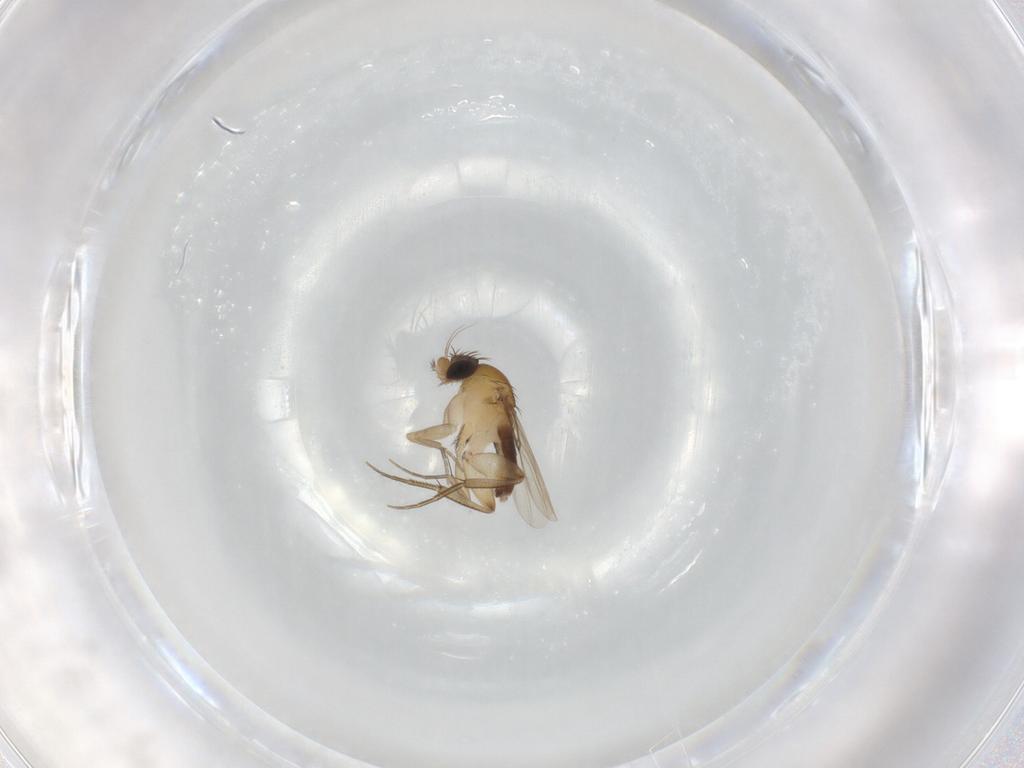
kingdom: Animalia
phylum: Arthropoda
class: Insecta
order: Diptera
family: Phoridae
